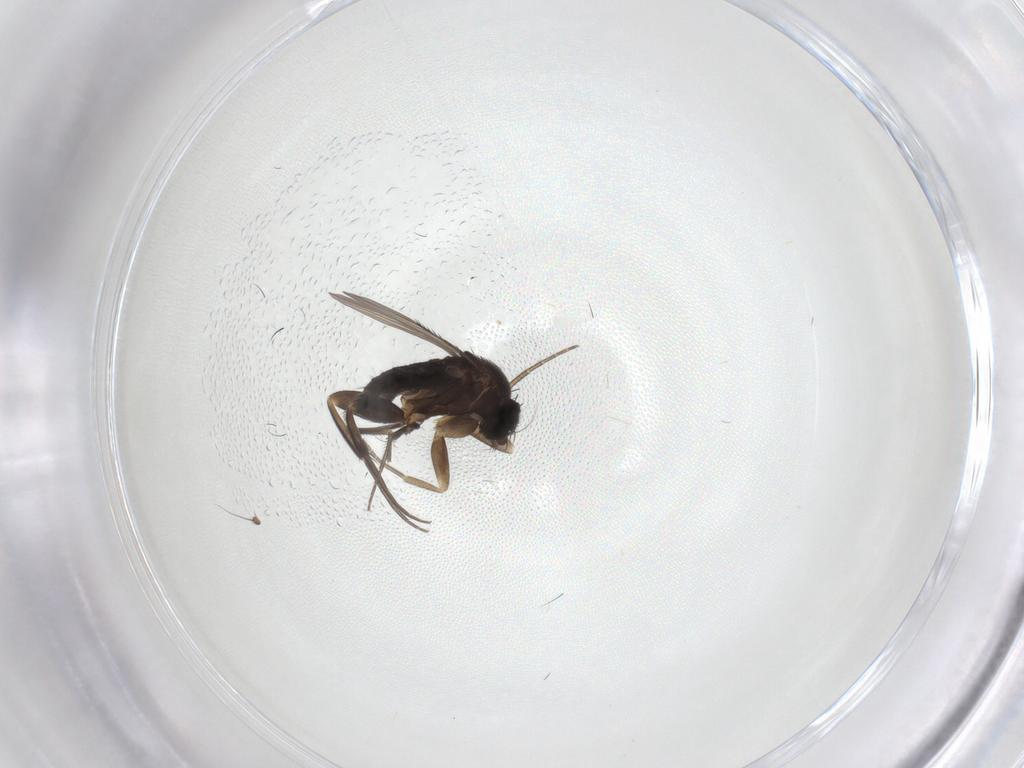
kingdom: Animalia
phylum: Arthropoda
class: Insecta
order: Diptera
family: Phoridae
